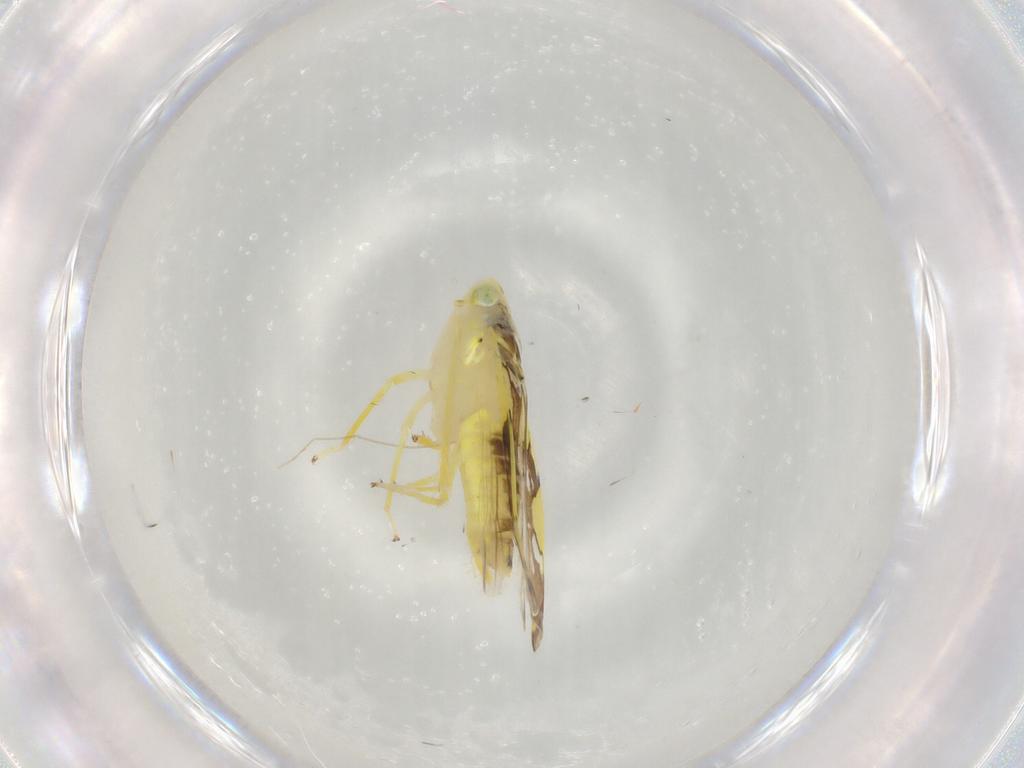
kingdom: Animalia
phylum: Arthropoda
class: Insecta
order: Hemiptera
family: Cicadellidae
